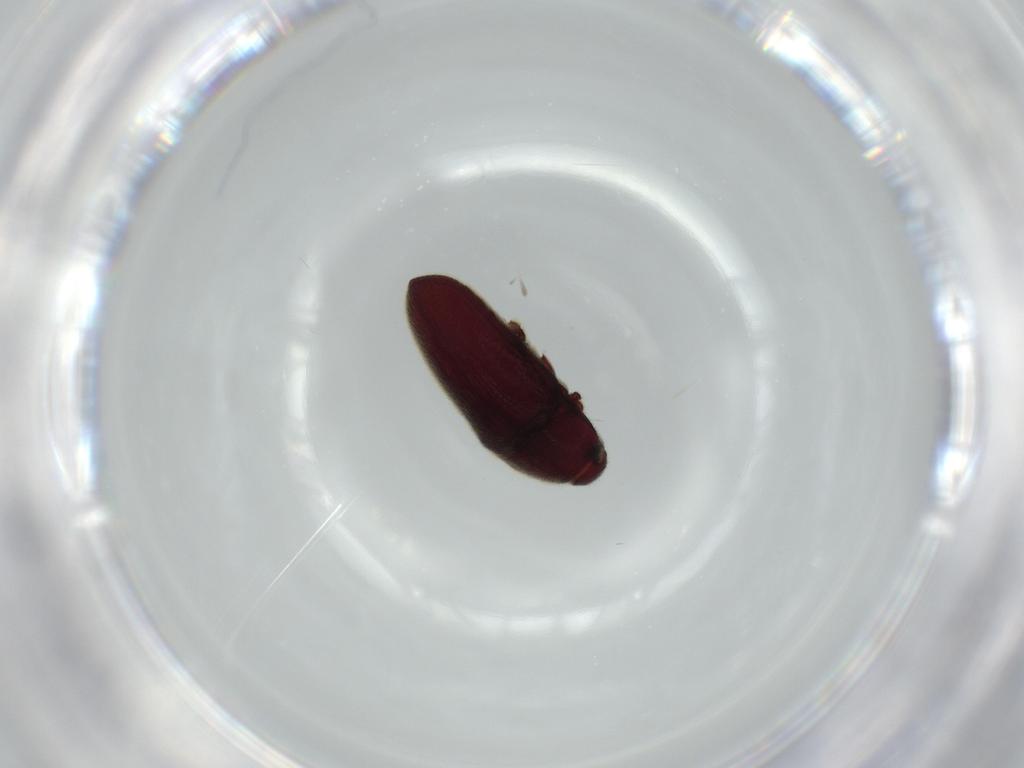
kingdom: Animalia
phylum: Arthropoda
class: Insecta
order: Coleoptera
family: Throscidae
